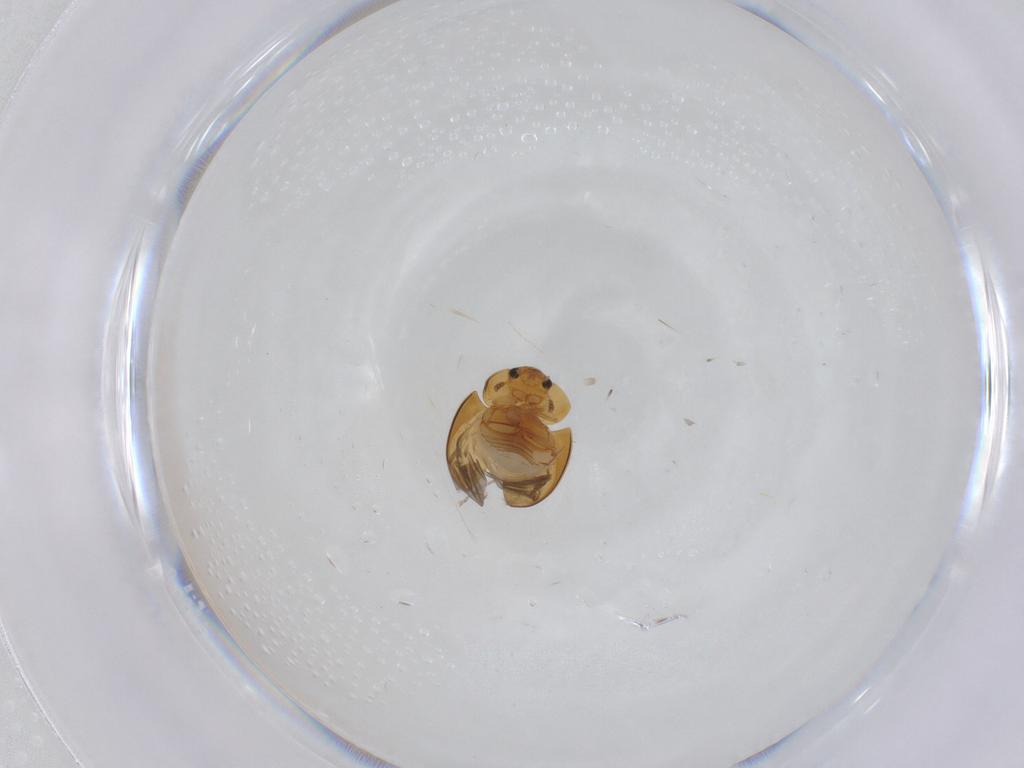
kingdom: Animalia
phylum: Arthropoda
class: Insecta
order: Coleoptera
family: Phalacridae
